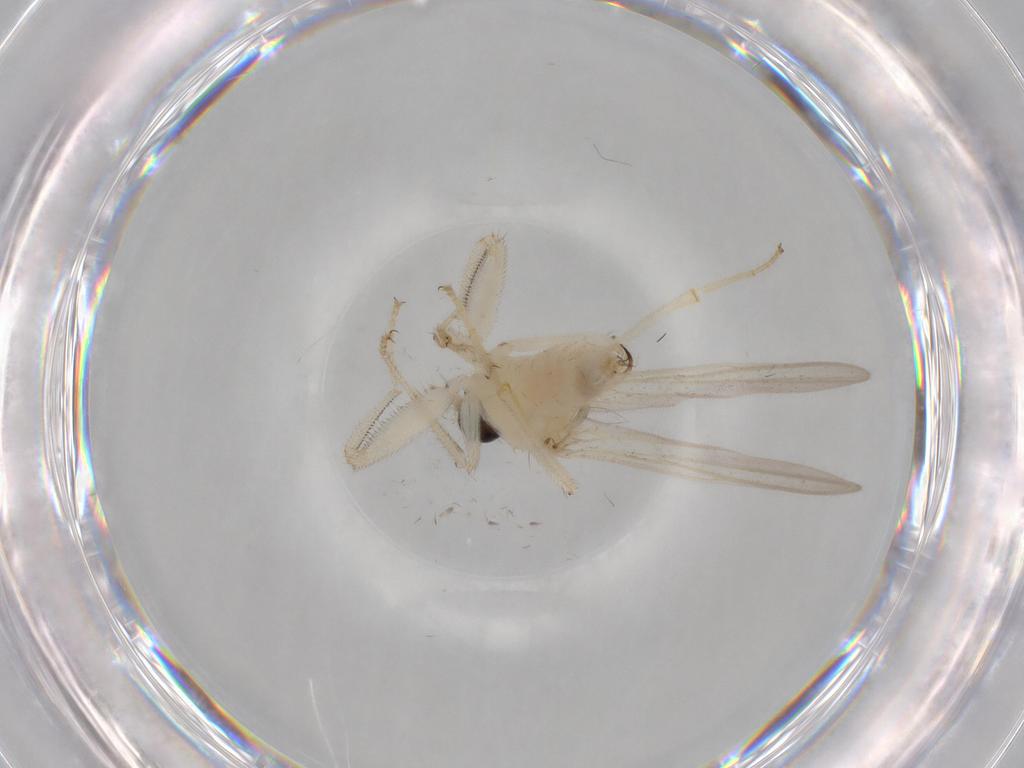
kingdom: Animalia
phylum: Arthropoda
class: Insecta
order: Diptera
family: Hybotidae
